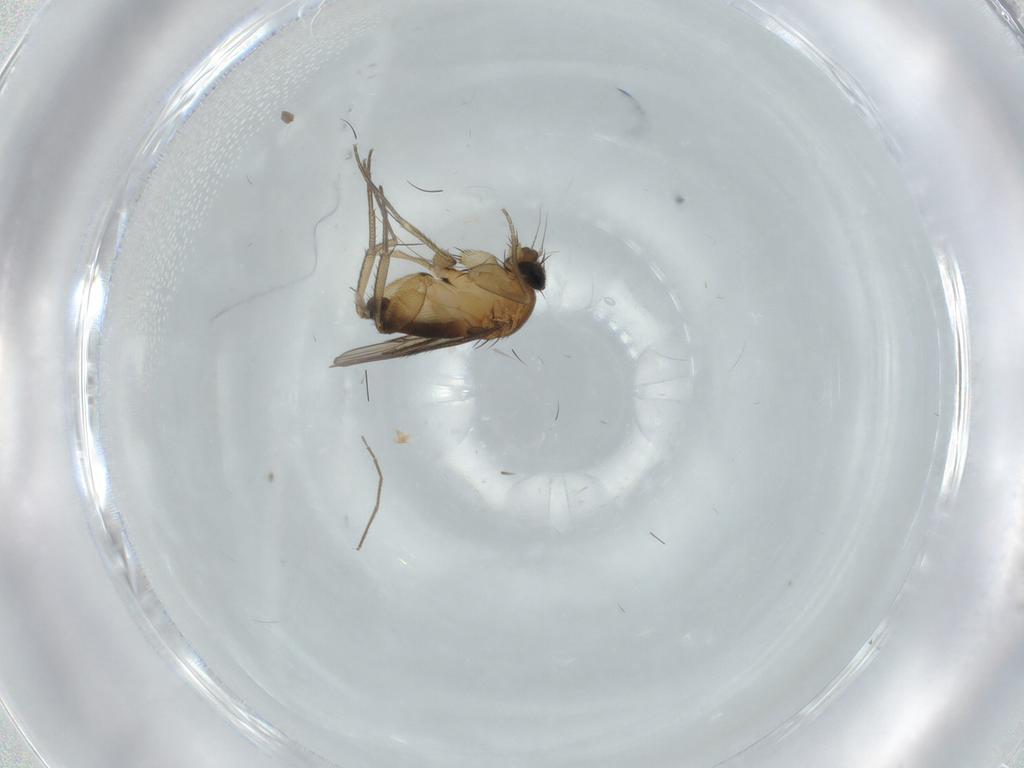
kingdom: Animalia
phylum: Arthropoda
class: Insecta
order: Diptera
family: Phoridae
